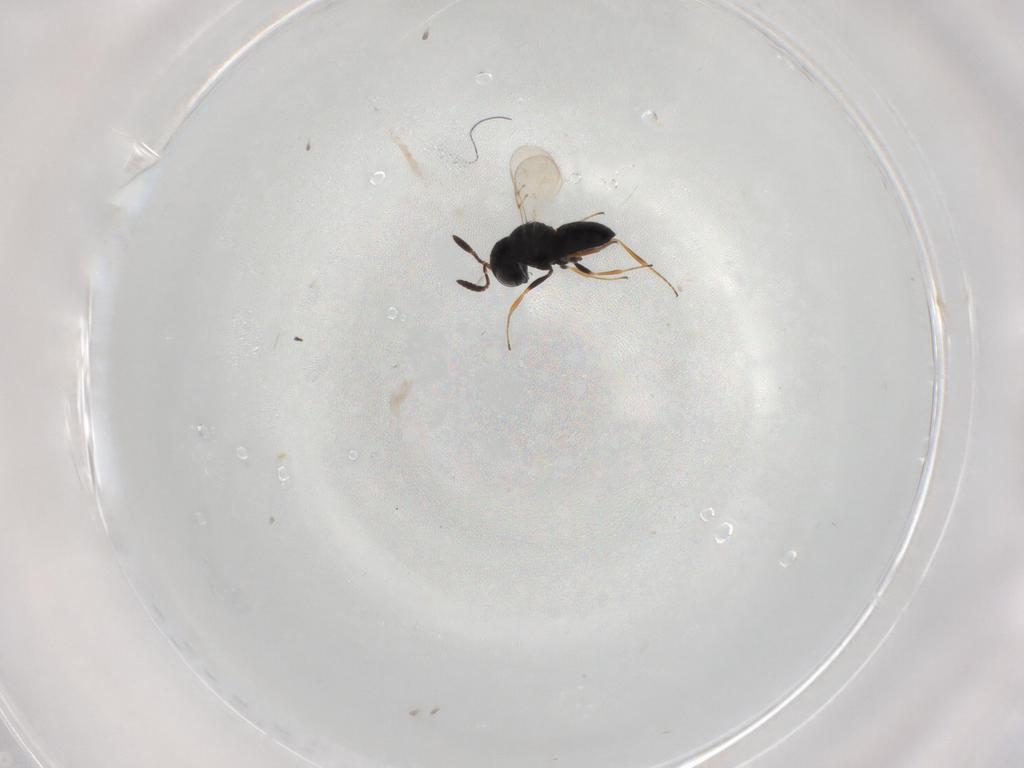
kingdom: Animalia
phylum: Arthropoda
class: Insecta
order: Coleoptera
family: Curculionidae
